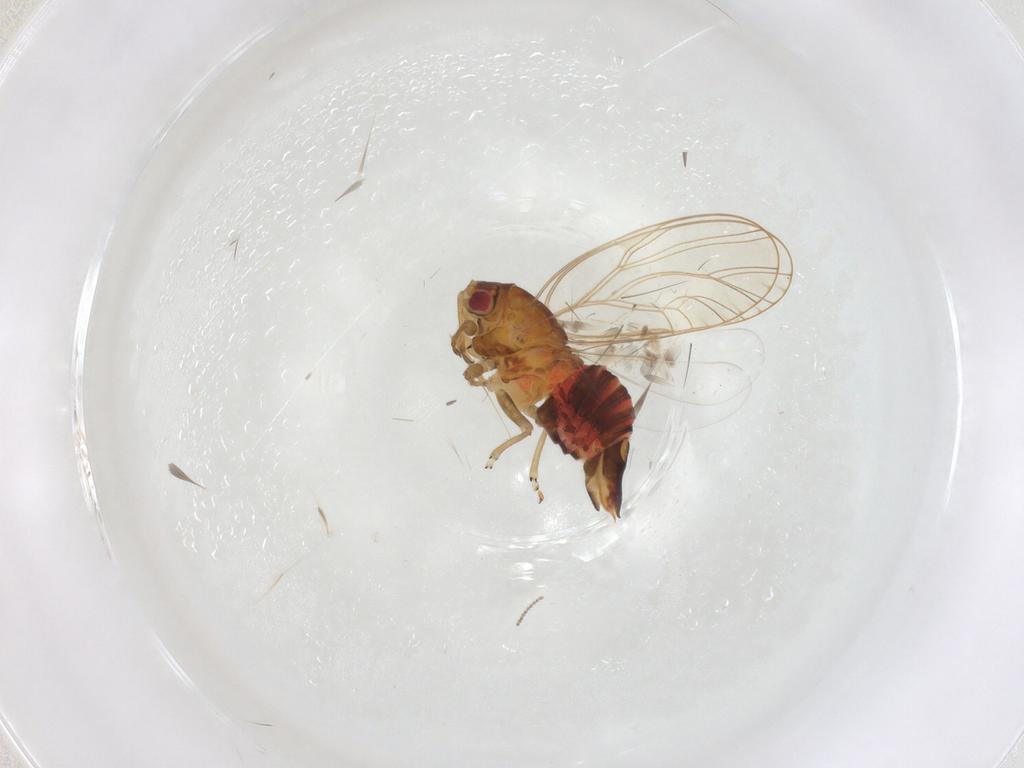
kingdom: Animalia
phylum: Arthropoda
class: Insecta
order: Hemiptera
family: Psyllidae
